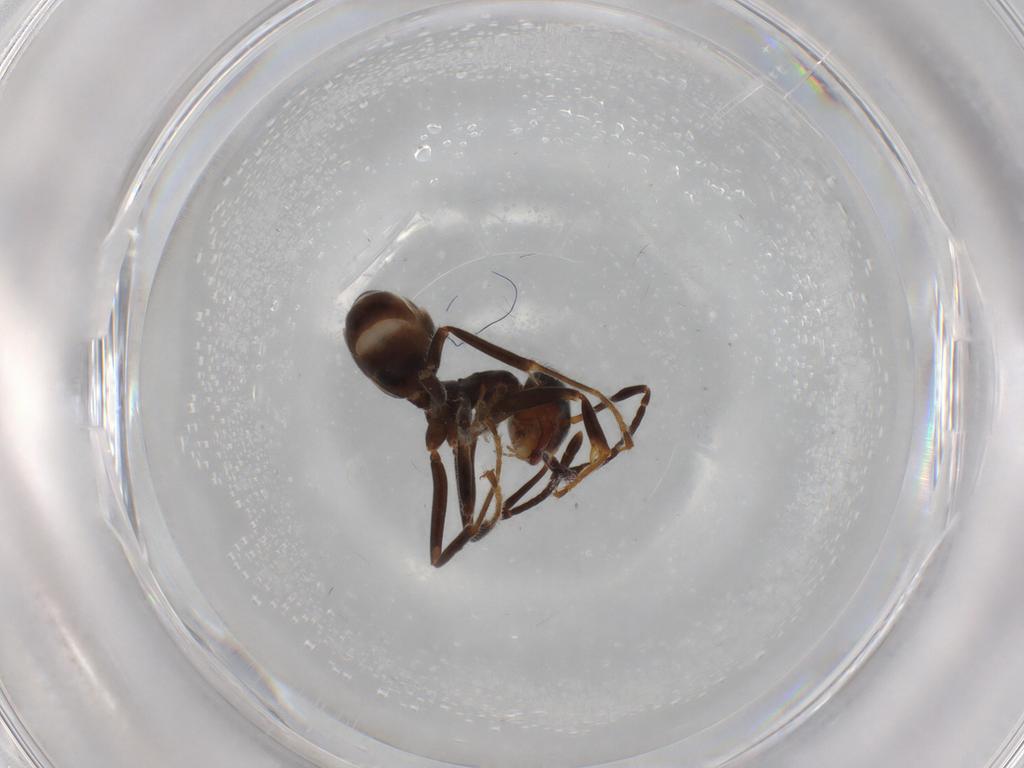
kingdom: Animalia
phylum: Arthropoda
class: Insecta
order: Hymenoptera
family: Formicidae
